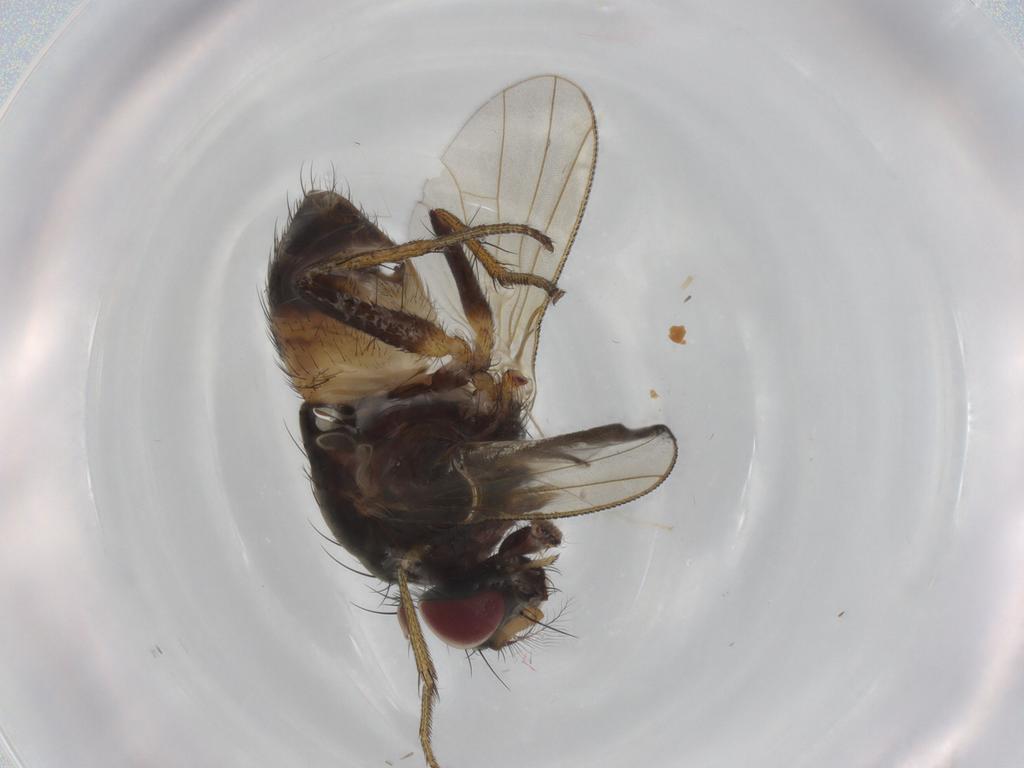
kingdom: Animalia
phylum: Arthropoda
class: Insecta
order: Diptera
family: Muscidae
